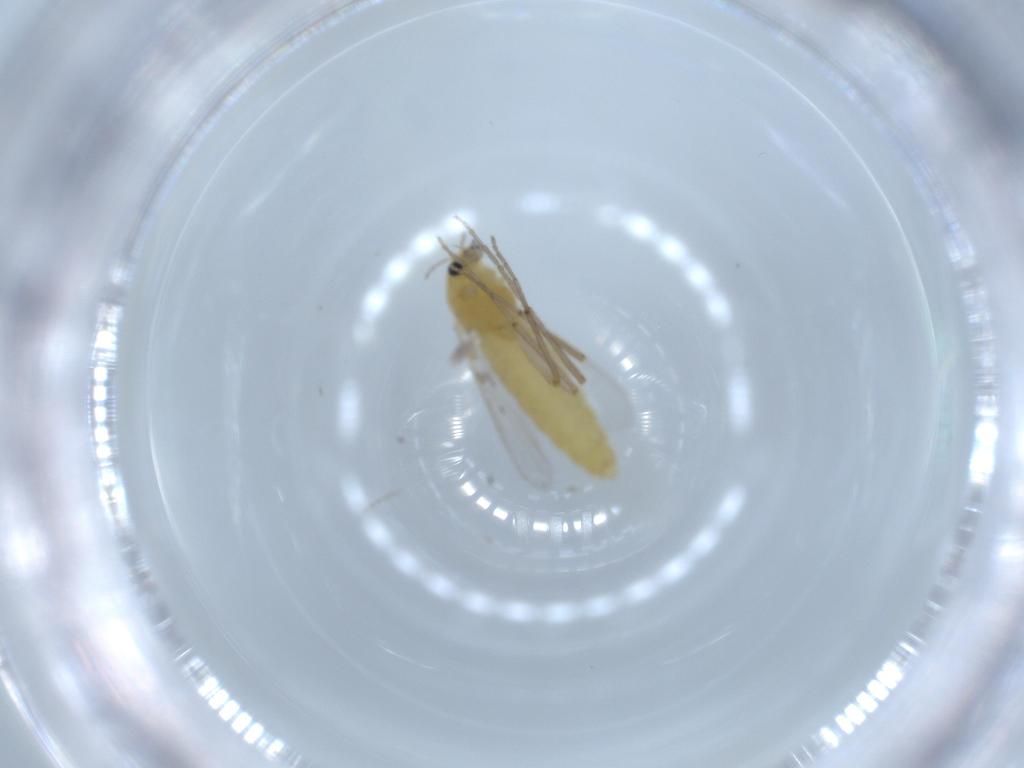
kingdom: Animalia
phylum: Arthropoda
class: Insecta
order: Diptera
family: Chironomidae
